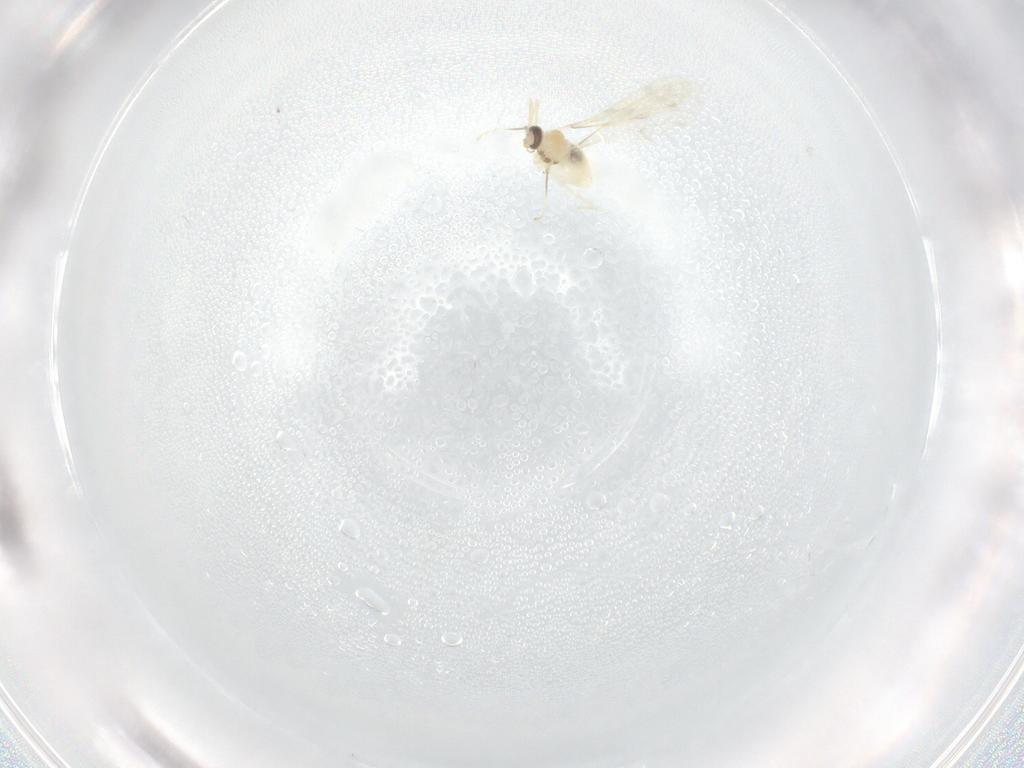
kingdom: Animalia
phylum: Arthropoda
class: Insecta
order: Diptera
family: Cecidomyiidae
